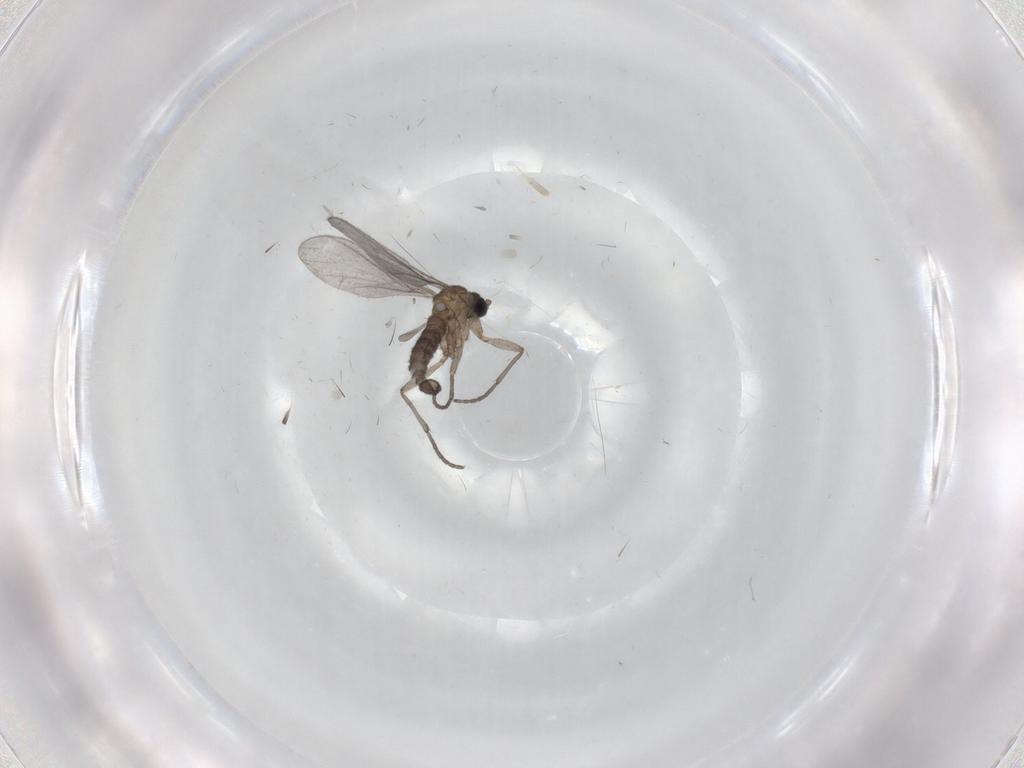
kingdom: Animalia
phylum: Arthropoda
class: Insecta
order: Diptera
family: Sciaridae
